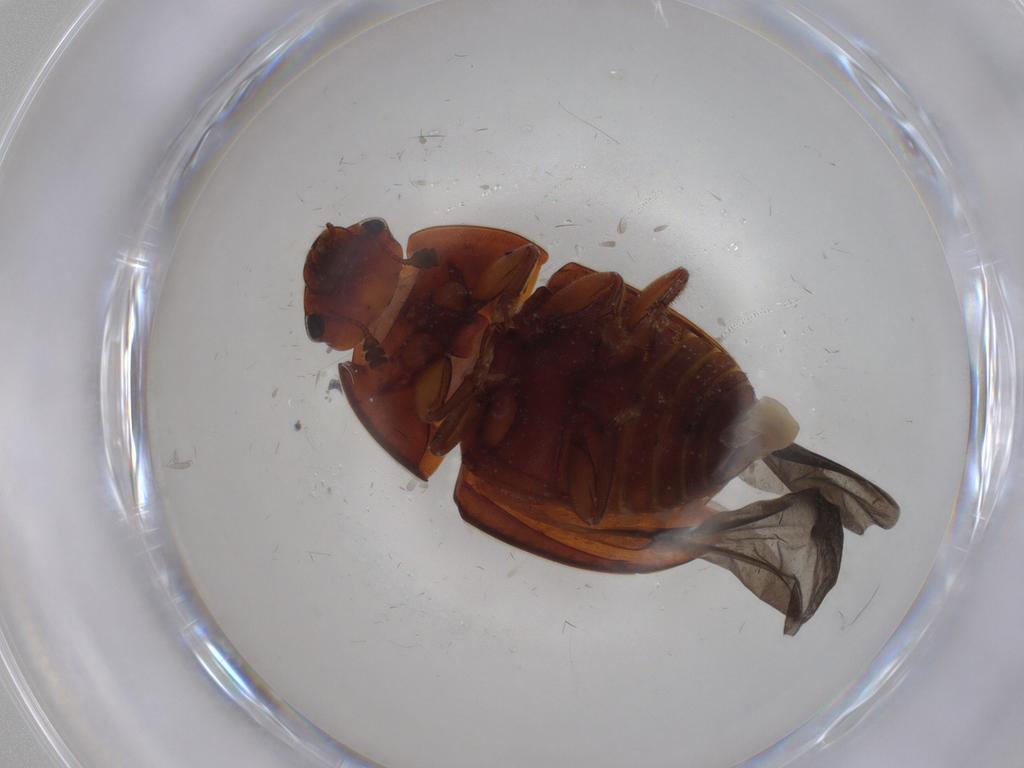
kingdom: Animalia
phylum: Arthropoda
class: Insecta
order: Coleoptera
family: Nitidulidae
